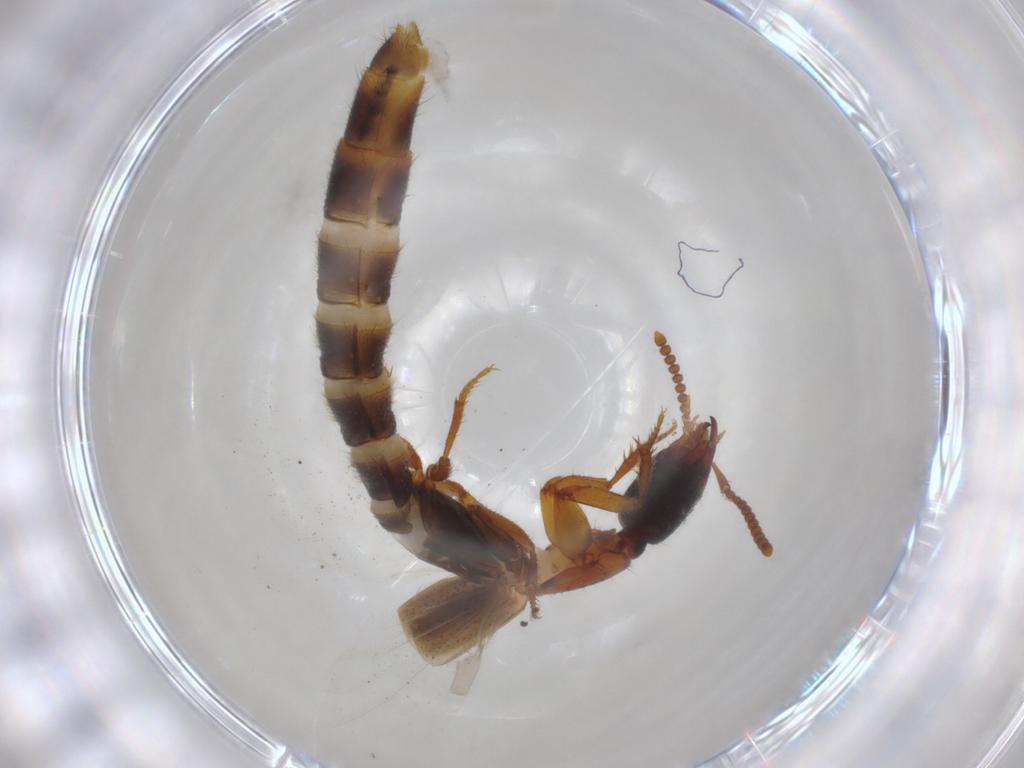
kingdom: Animalia
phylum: Arthropoda
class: Insecta
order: Coleoptera
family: Staphylinidae
